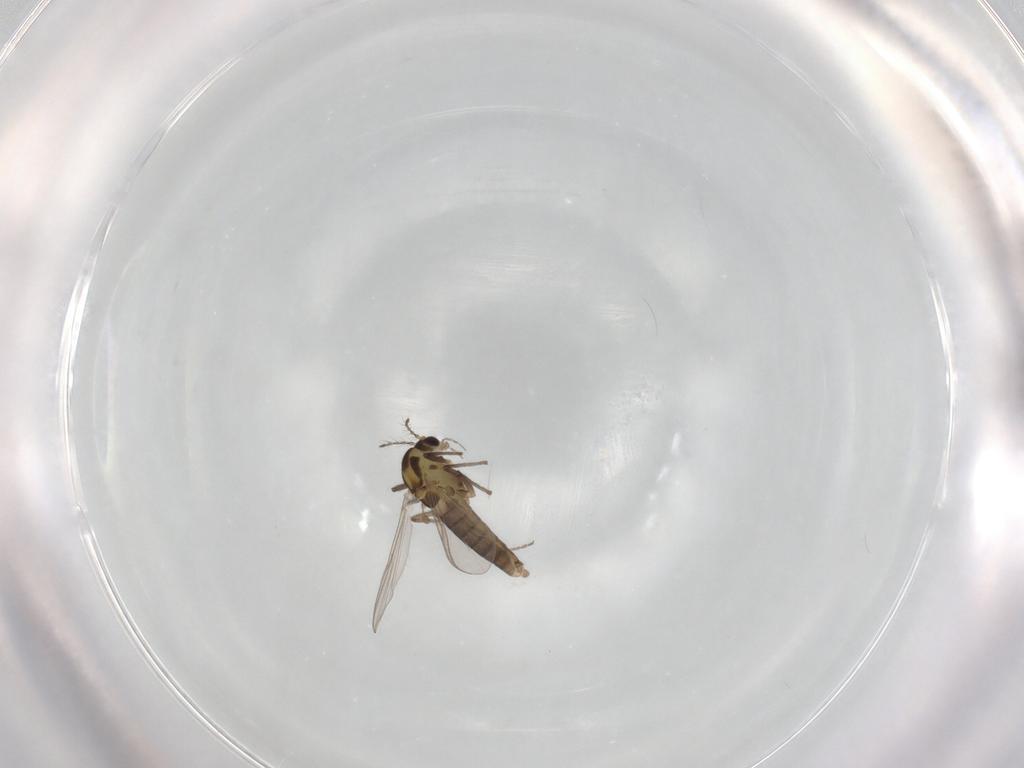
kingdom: Animalia
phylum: Arthropoda
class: Insecta
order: Diptera
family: Chironomidae
